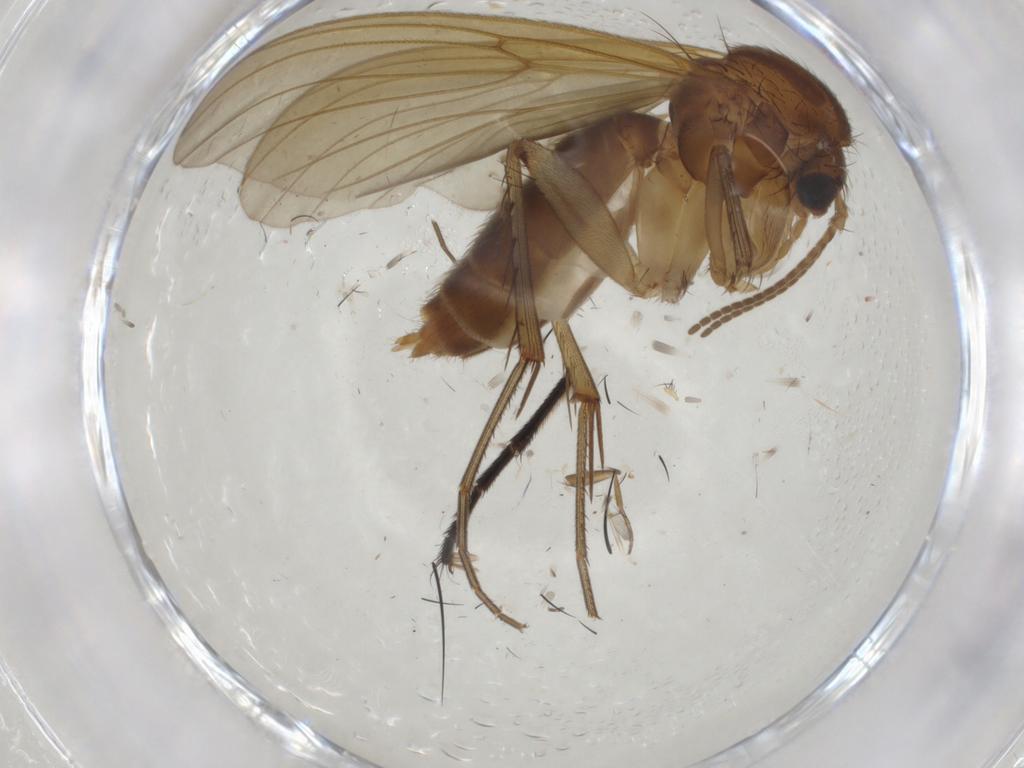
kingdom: Animalia
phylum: Arthropoda
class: Insecta
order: Diptera
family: Mycetophilidae
